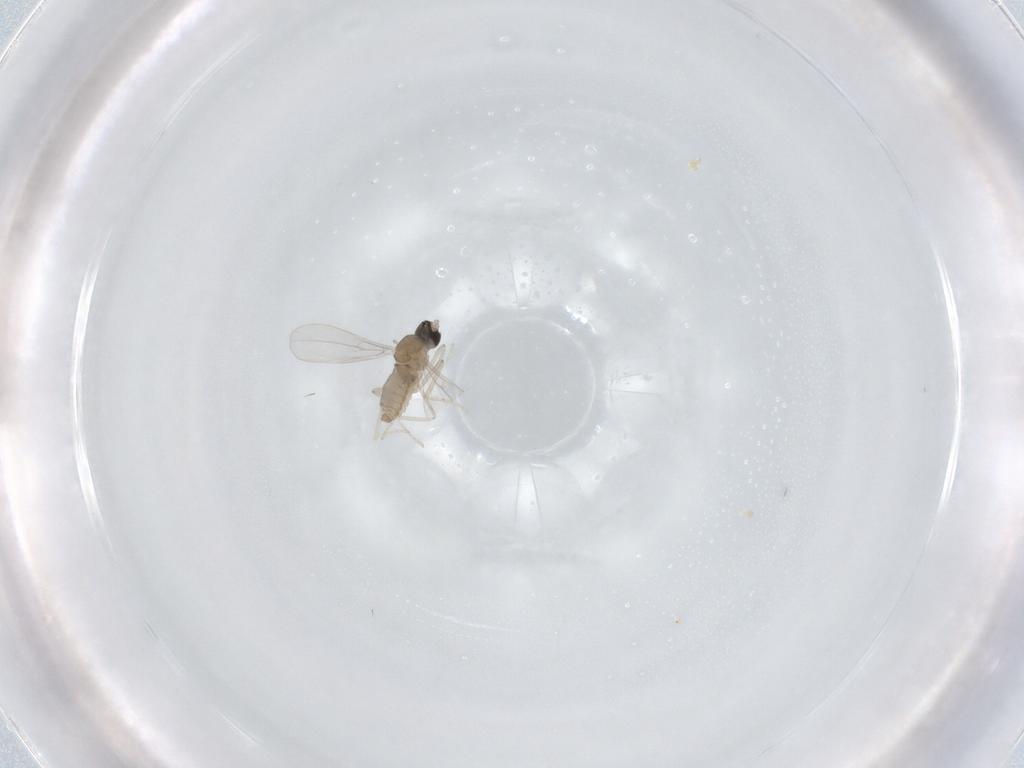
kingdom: Animalia
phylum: Arthropoda
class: Insecta
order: Diptera
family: Cecidomyiidae
